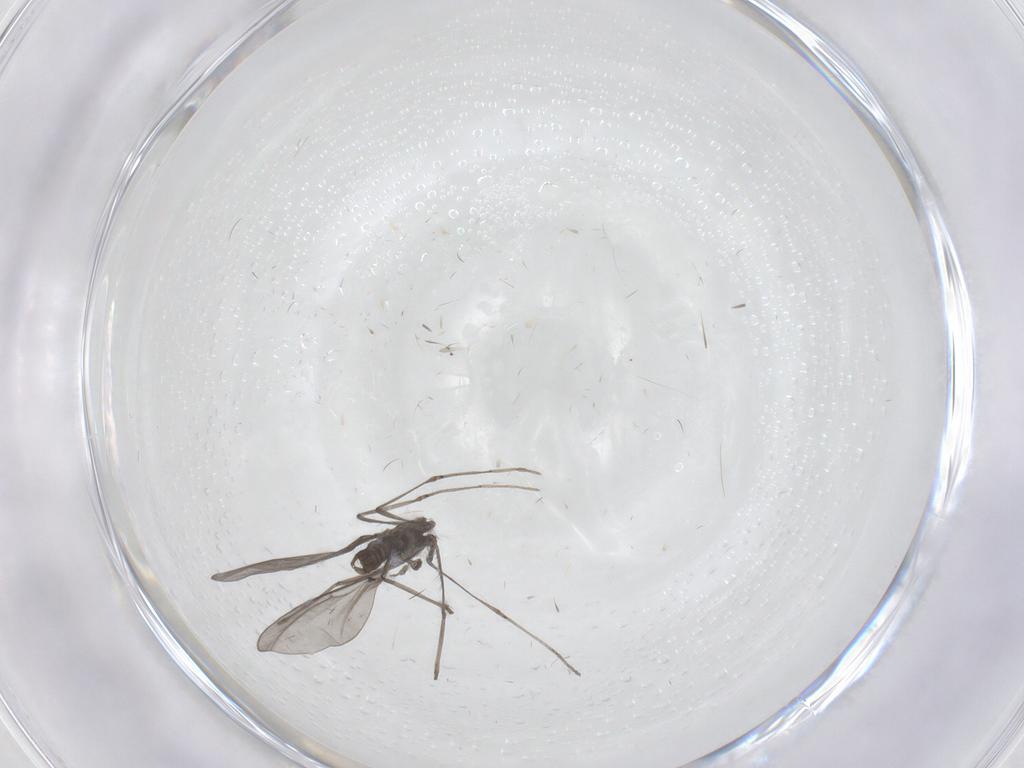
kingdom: Animalia
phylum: Arthropoda
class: Insecta
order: Diptera
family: Cecidomyiidae
